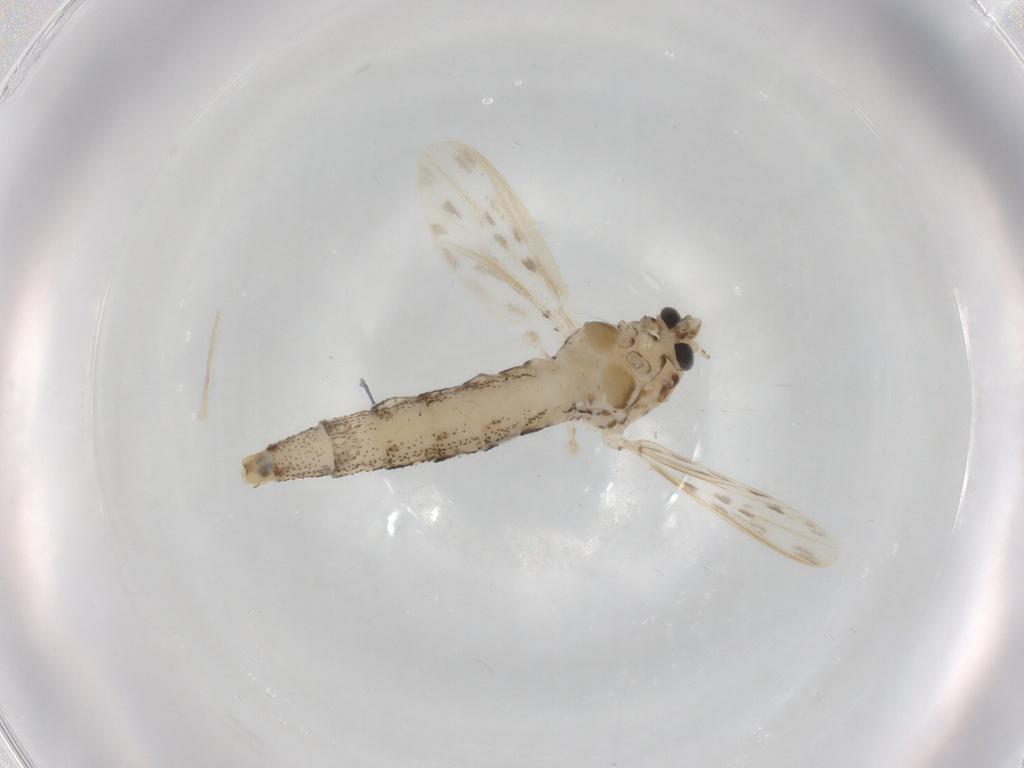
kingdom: Animalia
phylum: Arthropoda
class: Insecta
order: Diptera
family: Chaoboridae
